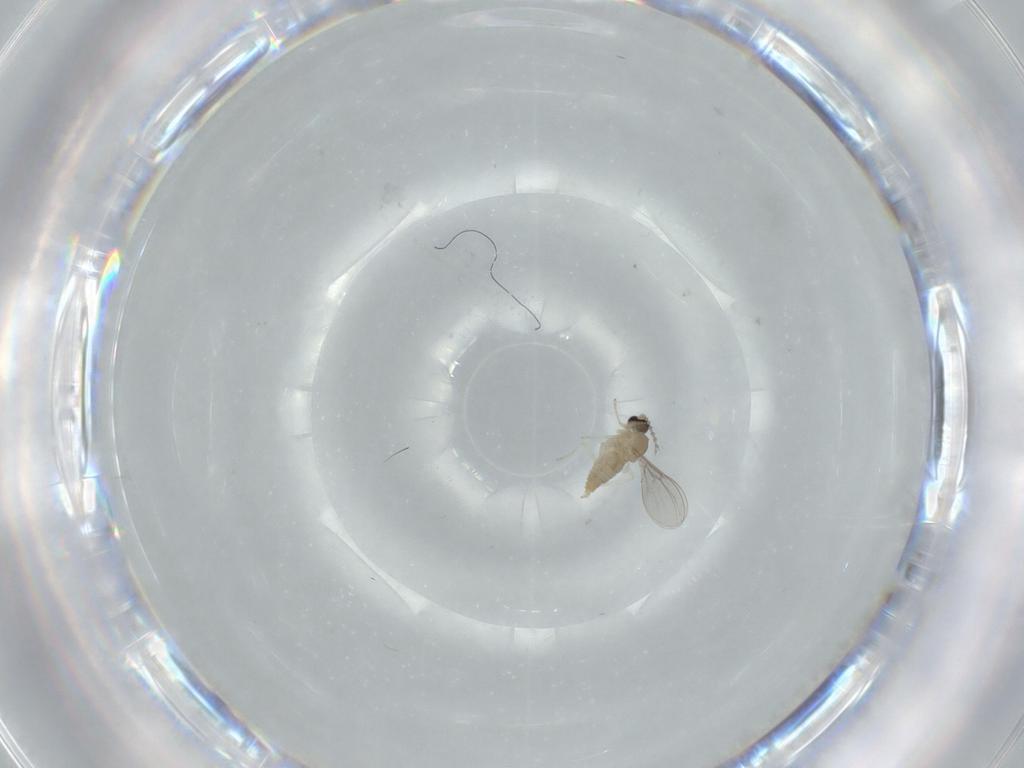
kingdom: Animalia
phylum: Arthropoda
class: Insecta
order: Diptera
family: Cecidomyiidae
